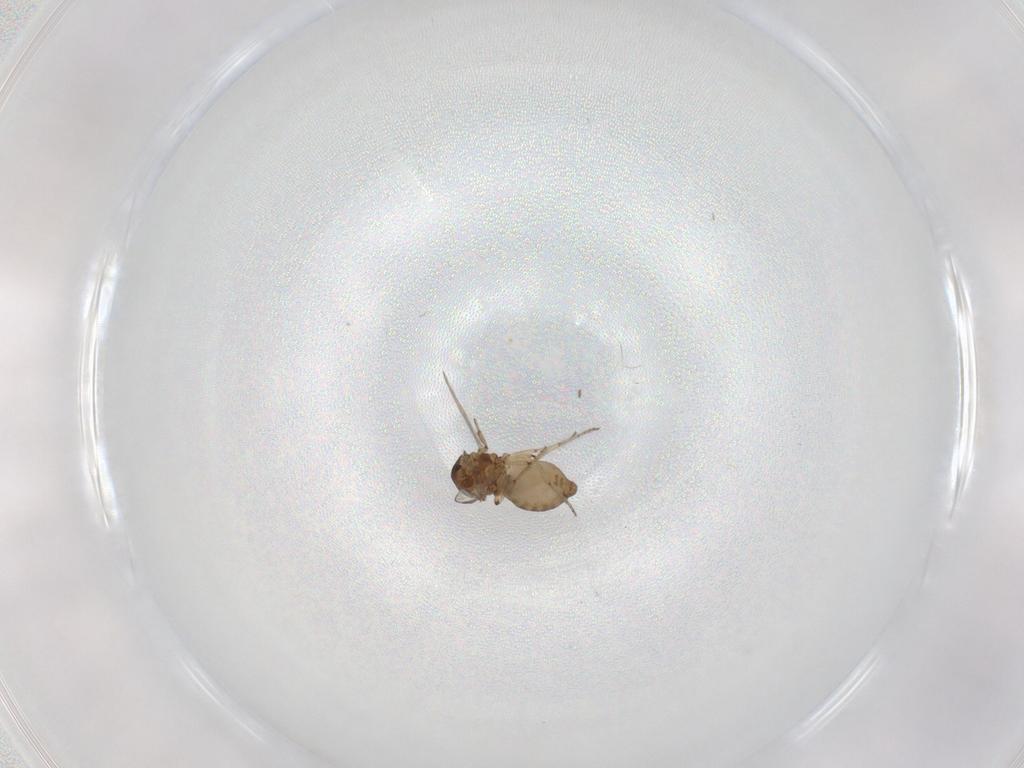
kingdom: Animalia
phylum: Arthropoda
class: Insecta
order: Diptera
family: Ceratopogonidae
